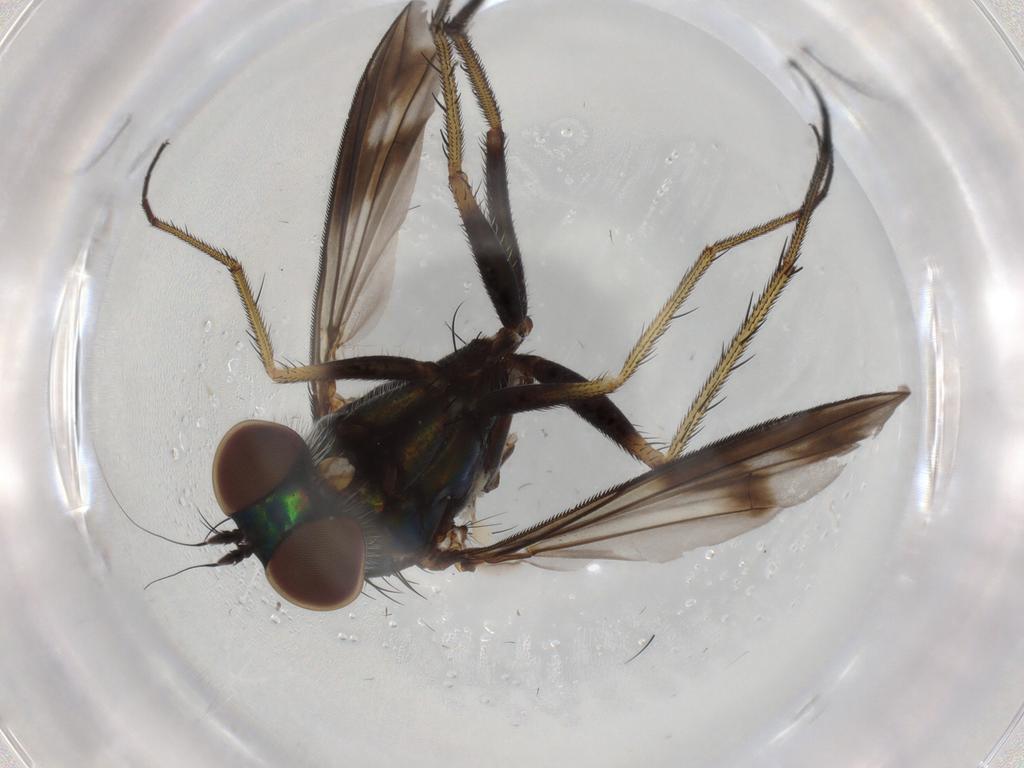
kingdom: Animalia
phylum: Arthropoda
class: Insecta
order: Diptera
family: Dolichopodidae
